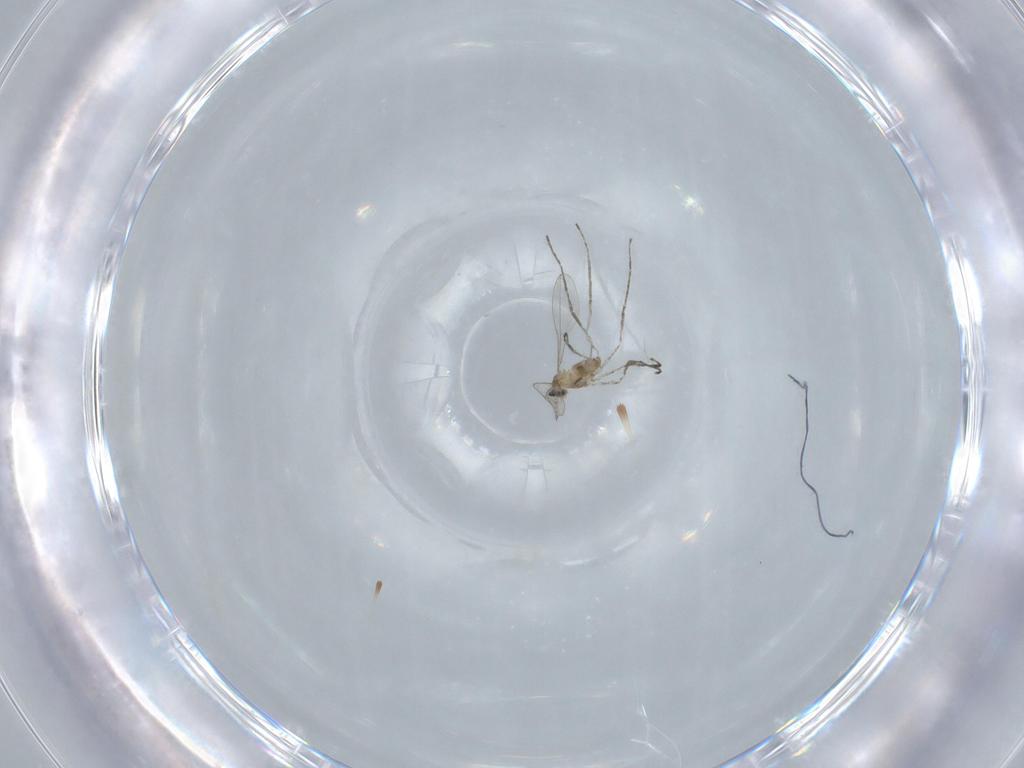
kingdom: Animalia
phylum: Arthropoda
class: Insecta
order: Diptera
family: Cecidomyiidae
